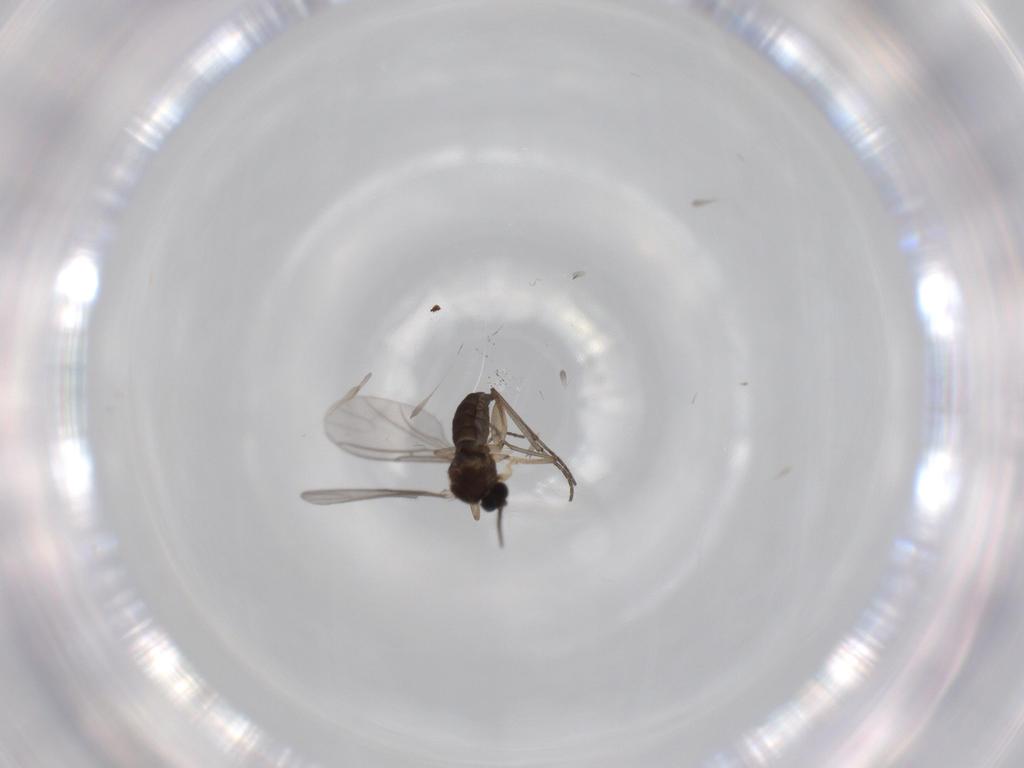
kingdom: Animalia
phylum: Arthropoda
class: Insecta
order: Diptera
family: Sciaridae
